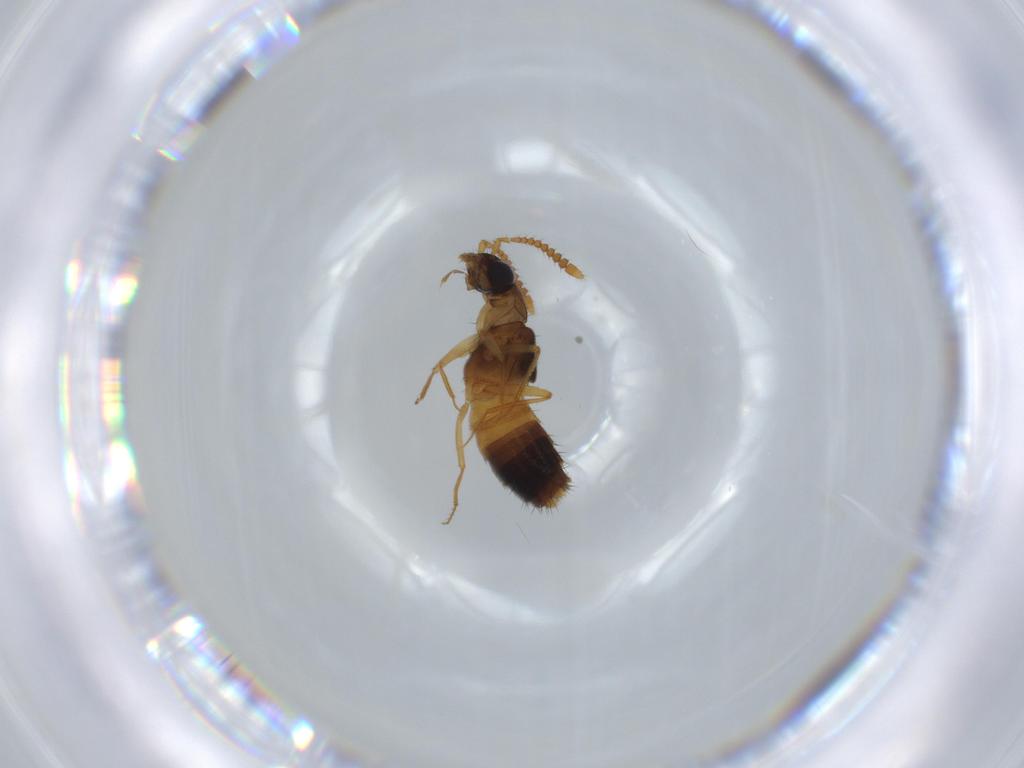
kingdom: Animalia
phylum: Arthropoda
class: Insecta
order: Coleoptera
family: Staphylinidae
